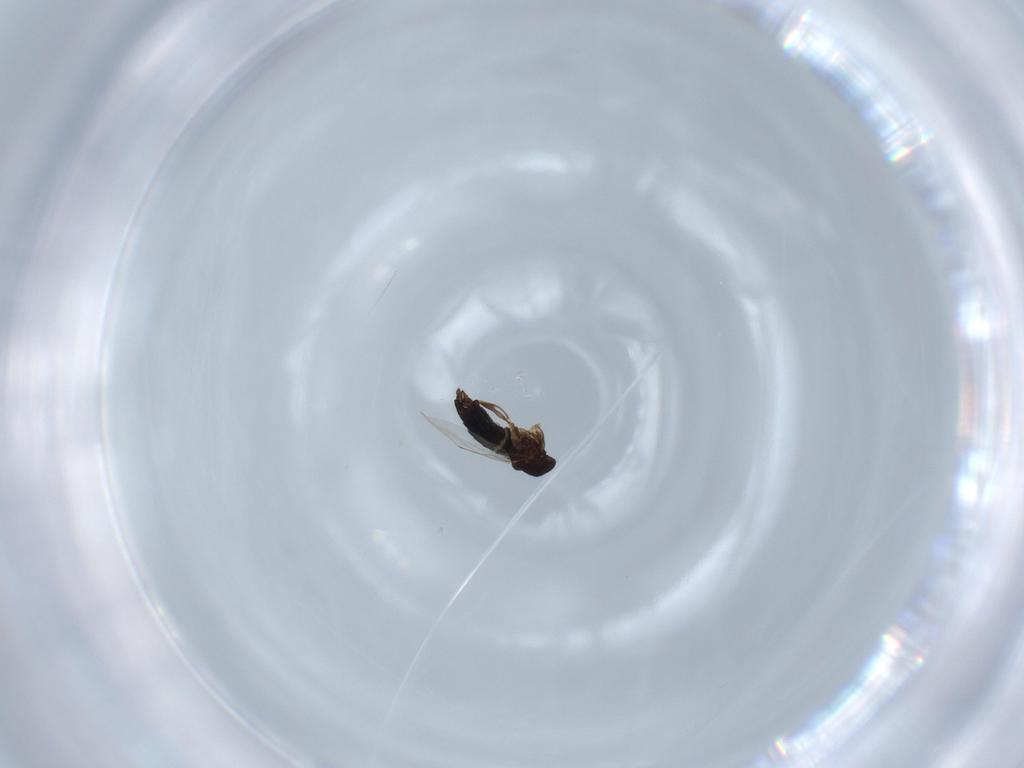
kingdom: Animalia
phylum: Arthropoda
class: Insecta
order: Diptera
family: Scatopsidae
